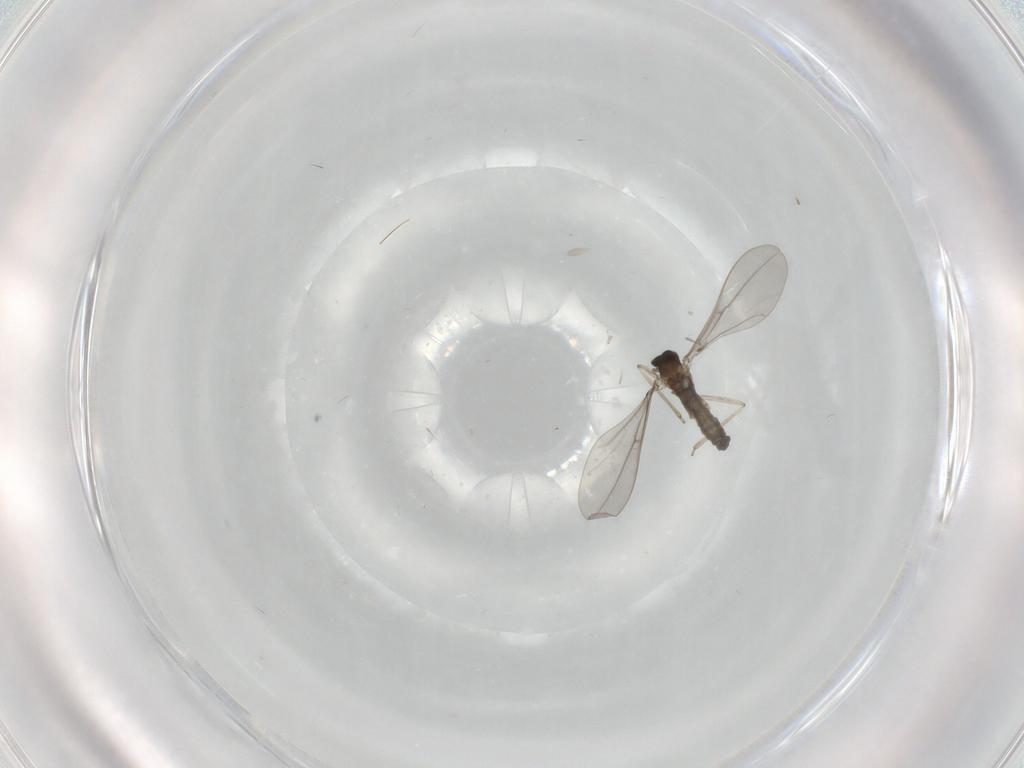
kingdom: Animalia
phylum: Arthropoda
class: Insecta
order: Diptera
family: Milichiidae
